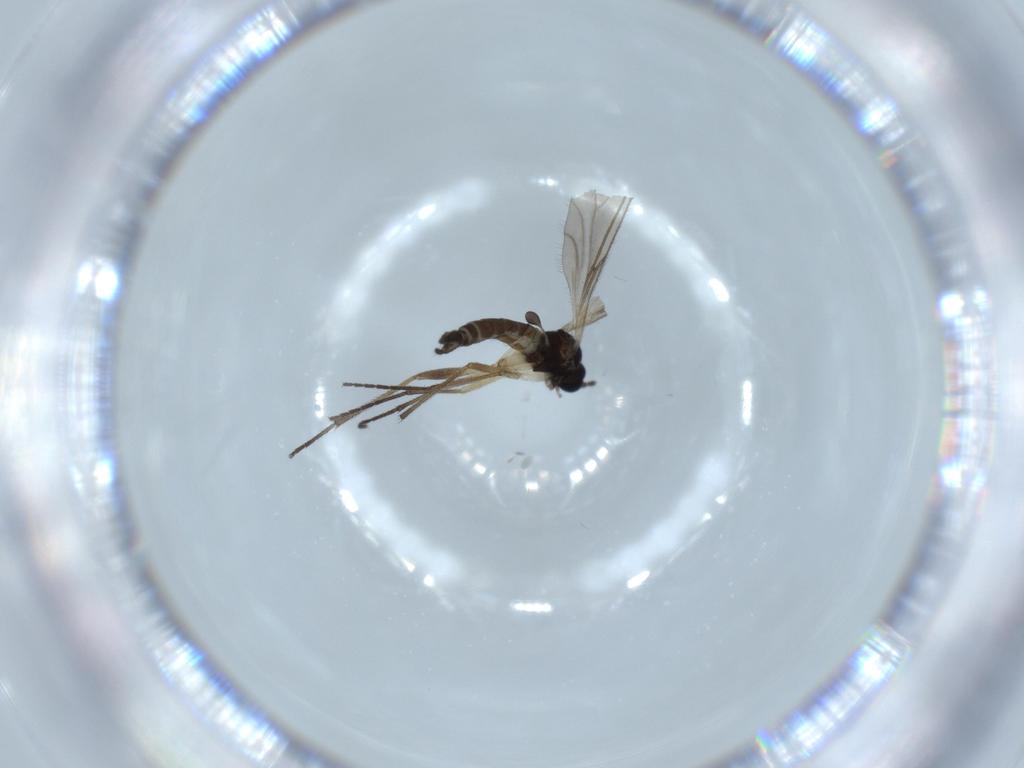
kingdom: Animalia
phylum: Arthropoda
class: Insecta
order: Diptera
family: Sciaridae
